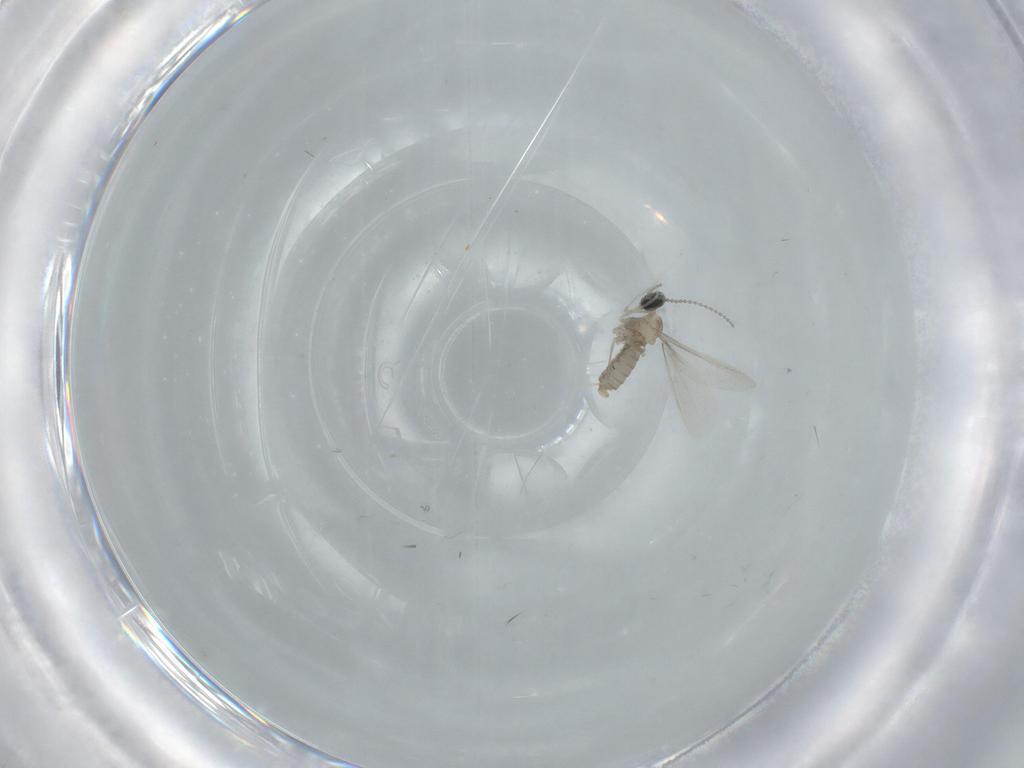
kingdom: Animalia
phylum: Arthropoda
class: Insecta
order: Diptera
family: Cecidomyiidae
